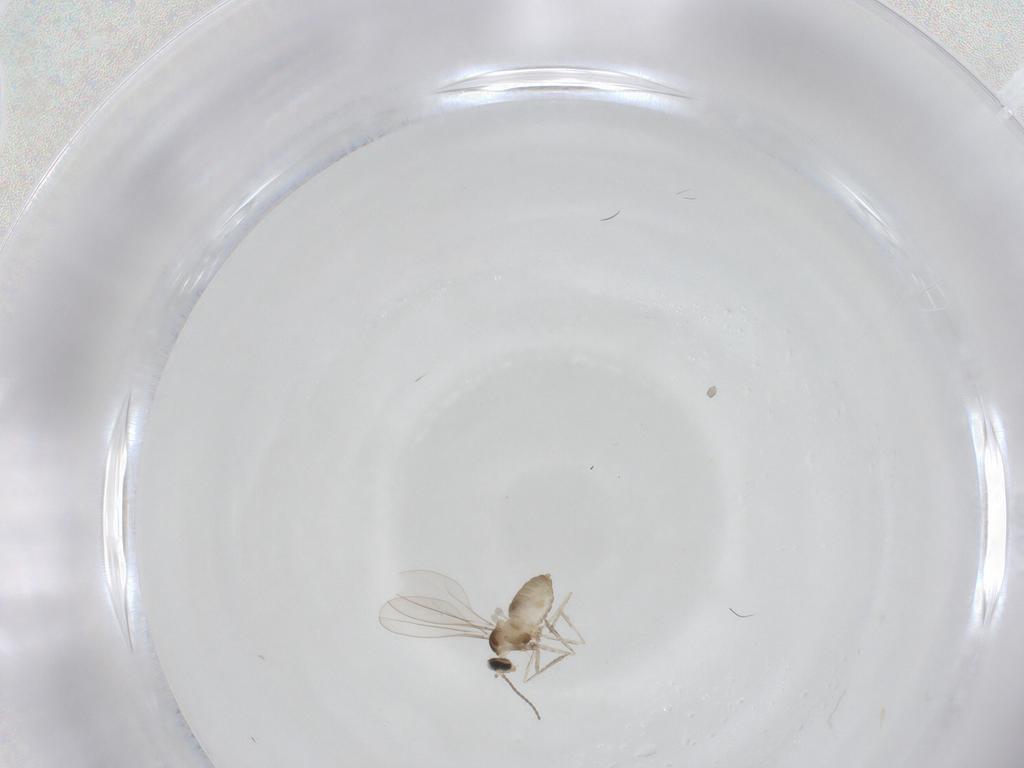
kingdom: Animalia
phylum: Arthropoda
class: Insecta
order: Diptera
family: Cecidomyiidae
